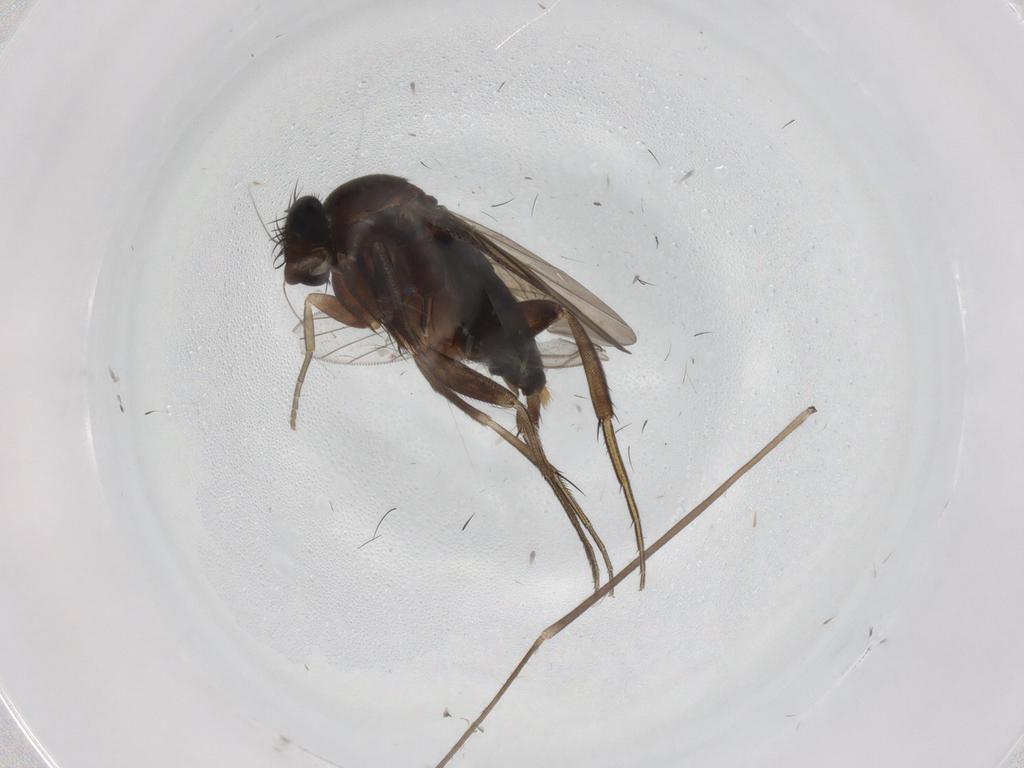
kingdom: Animalia
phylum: Arthropoda
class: Insecta
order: Diptera
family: Phoridae
